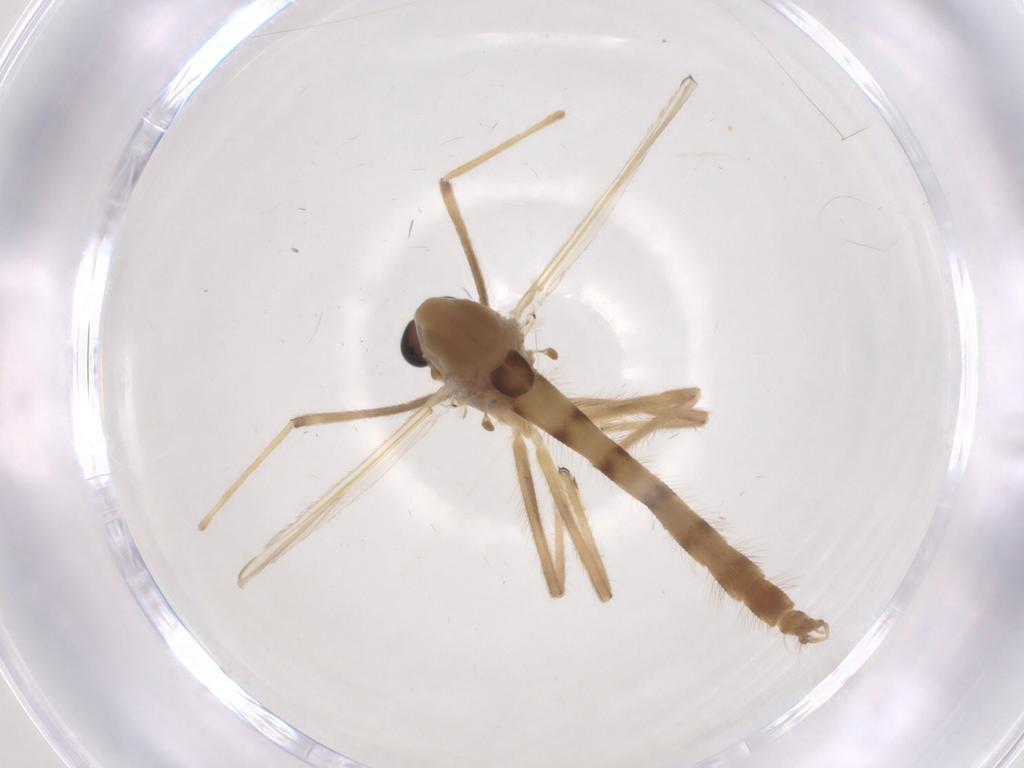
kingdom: Animalia
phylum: Arthropoda
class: Insecta
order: Diptera
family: Chironomidae
